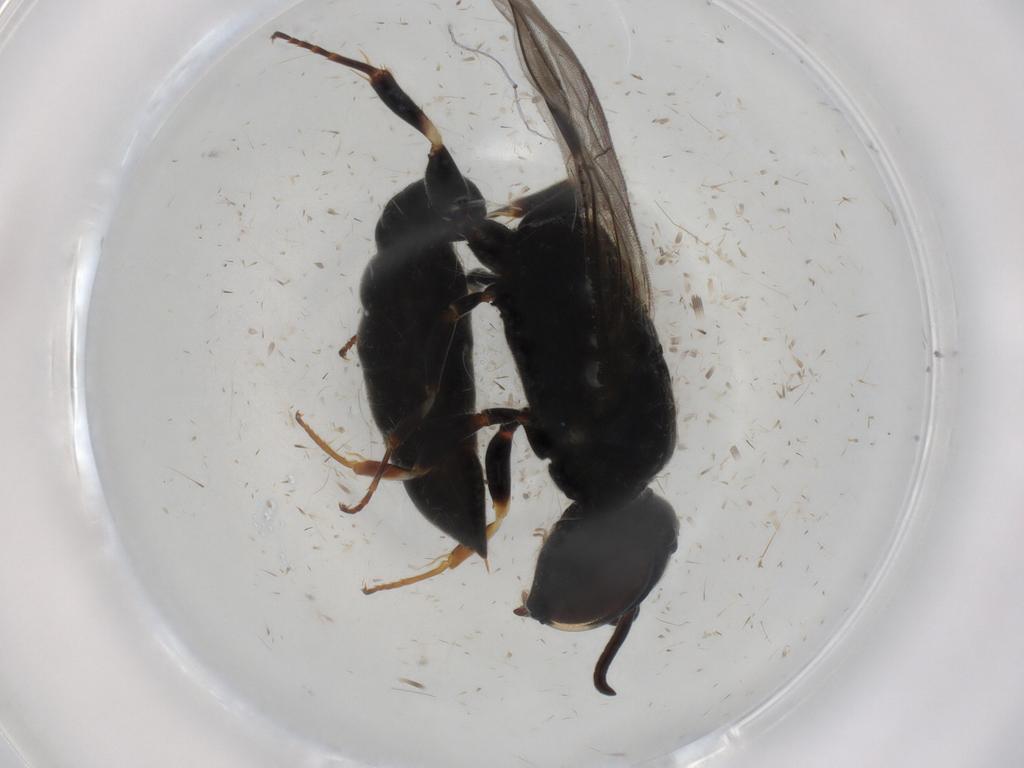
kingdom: Animalia
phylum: Arthropoda
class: Insecta
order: Hymenoptera
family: Pemphredonidae
